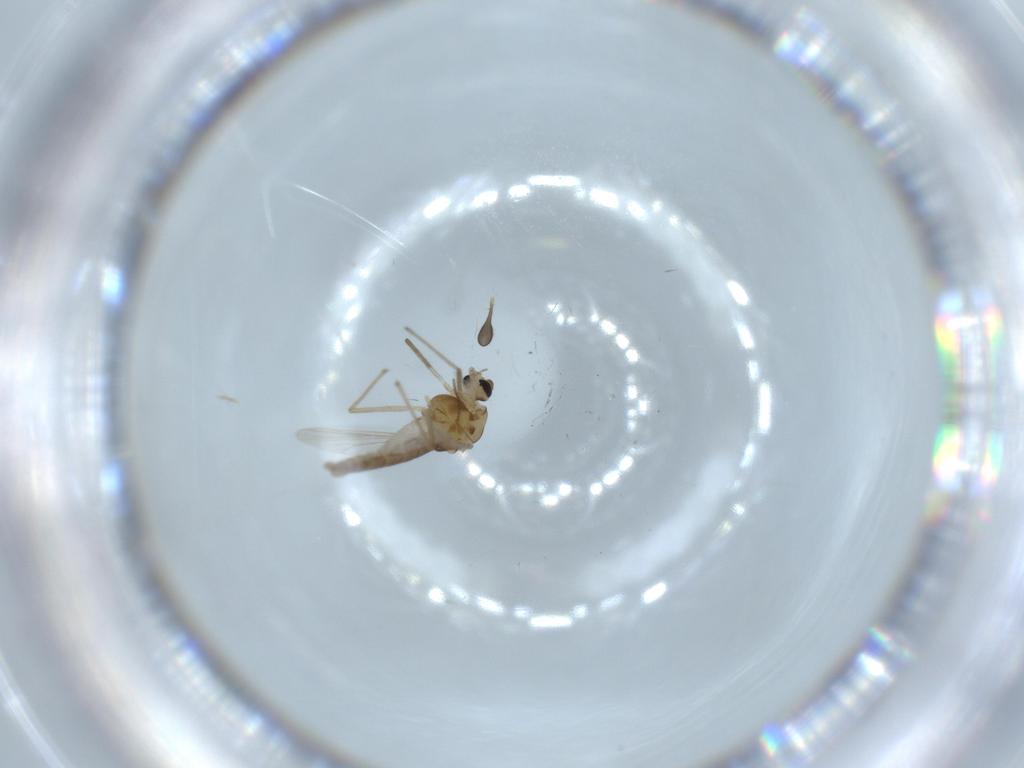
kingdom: Animalia
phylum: Arthropoda
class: Insecta
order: Diptera
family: Chironomidae
